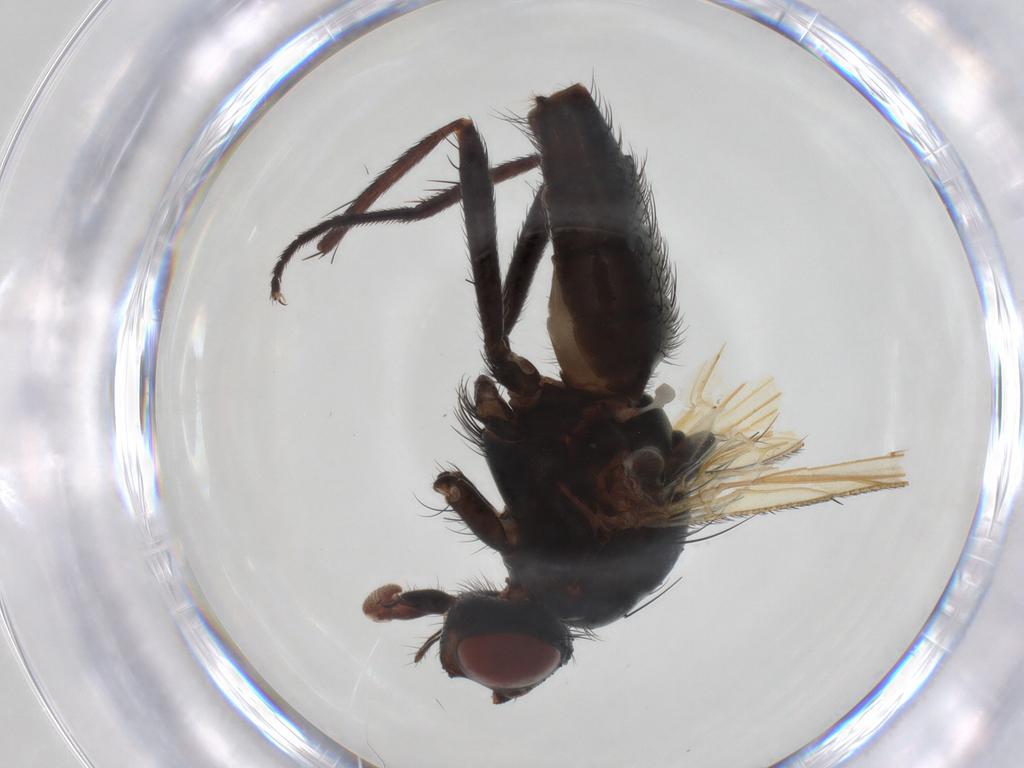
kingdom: Animalia
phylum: Arthropoda
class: Insecta
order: Diptera
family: Anthomyiidae
